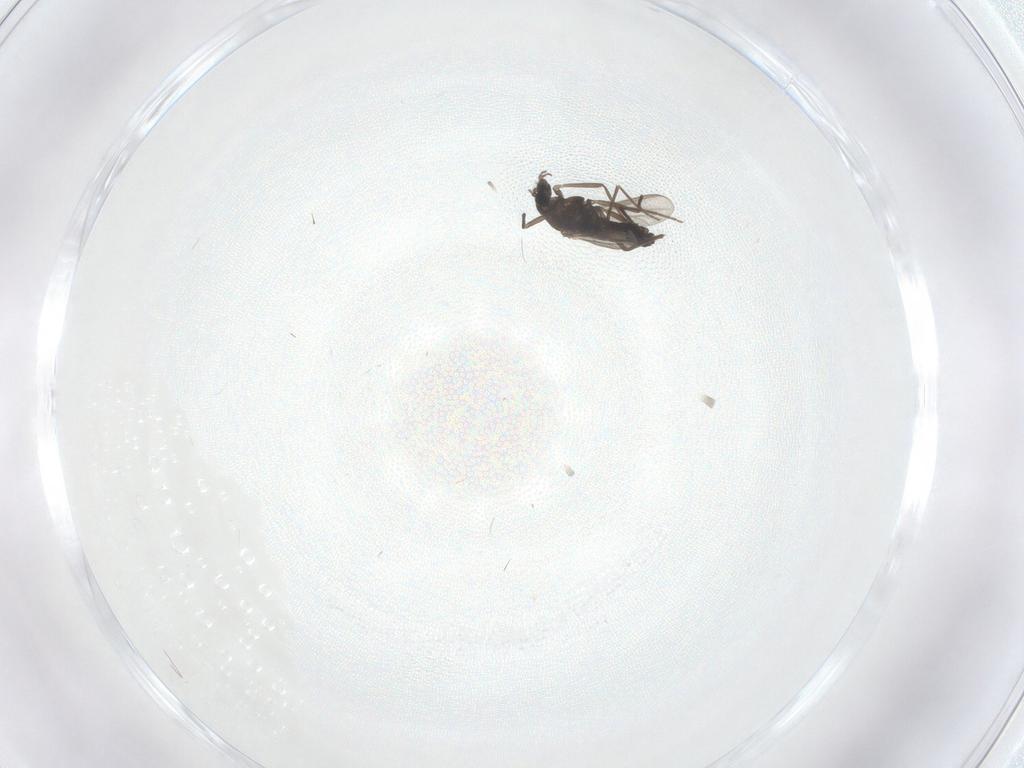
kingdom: Animalia
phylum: Arthropoda
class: Insecta
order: Diptera
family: Chironomidae
